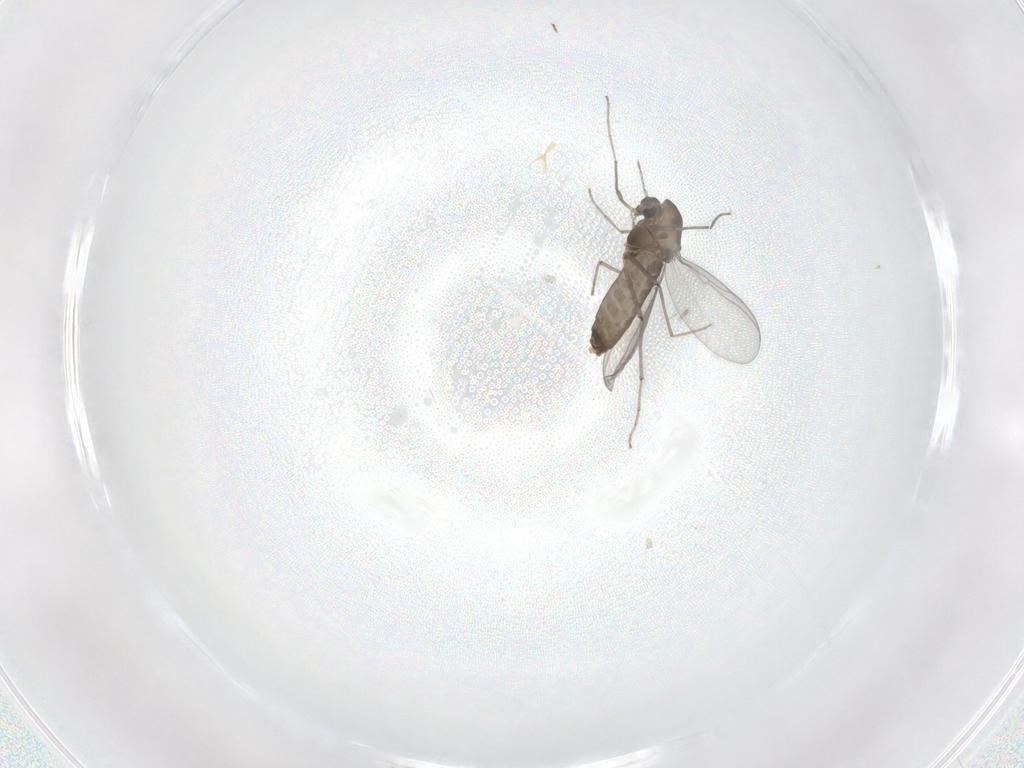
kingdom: Animalia
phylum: Arthropoda
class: Insecta
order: Diptera
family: Chironomidae
